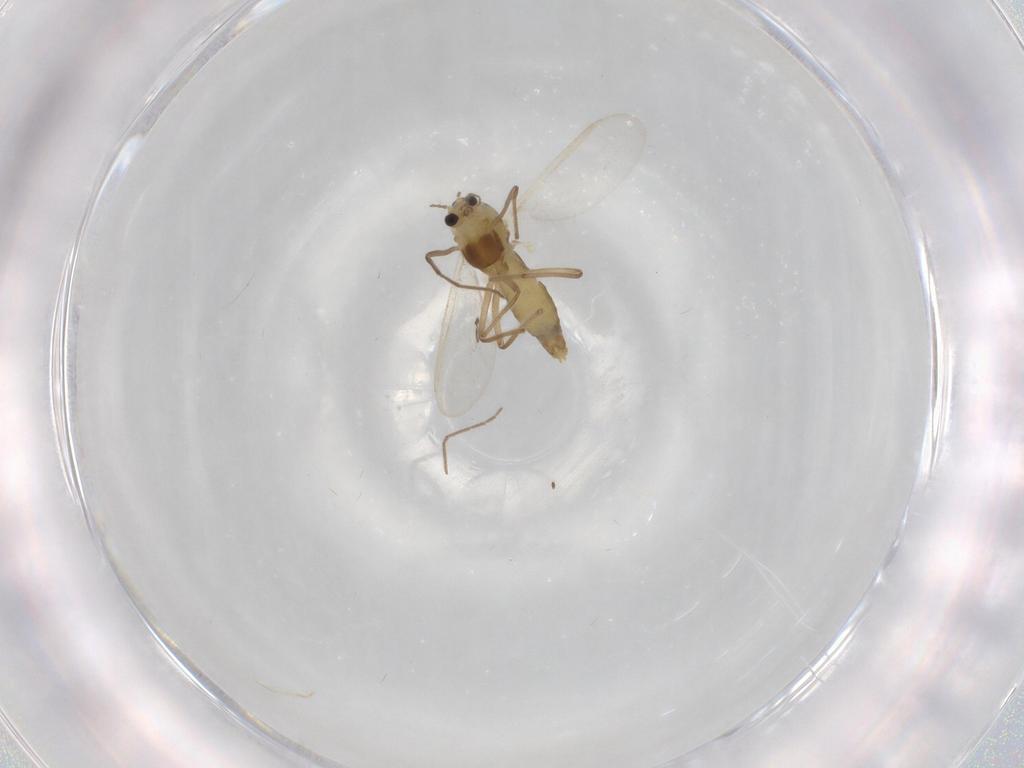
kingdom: Animalia
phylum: Arthropoda
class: Insecta
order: Diptera
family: Chironomidae
